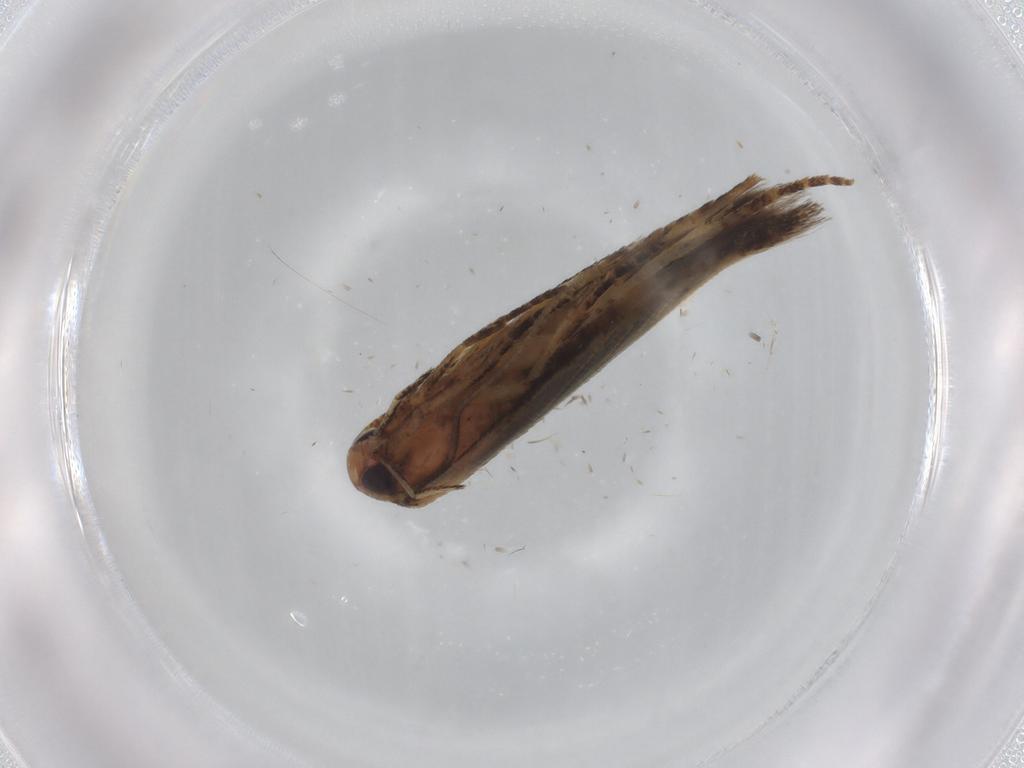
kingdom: Animalia
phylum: Arthropoda
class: Insecta
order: Lepidoptera
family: Cosmopterigidae
